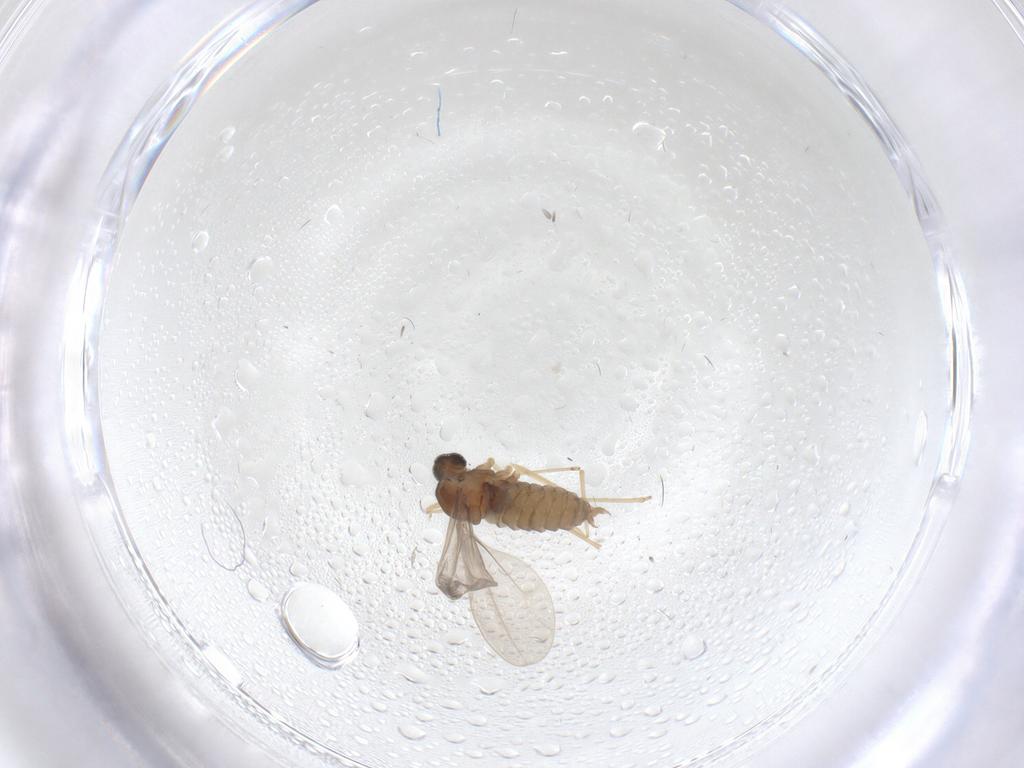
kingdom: Animalia
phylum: Arthropoda
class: Insecta
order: Diptera
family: Cecidomyiidae
